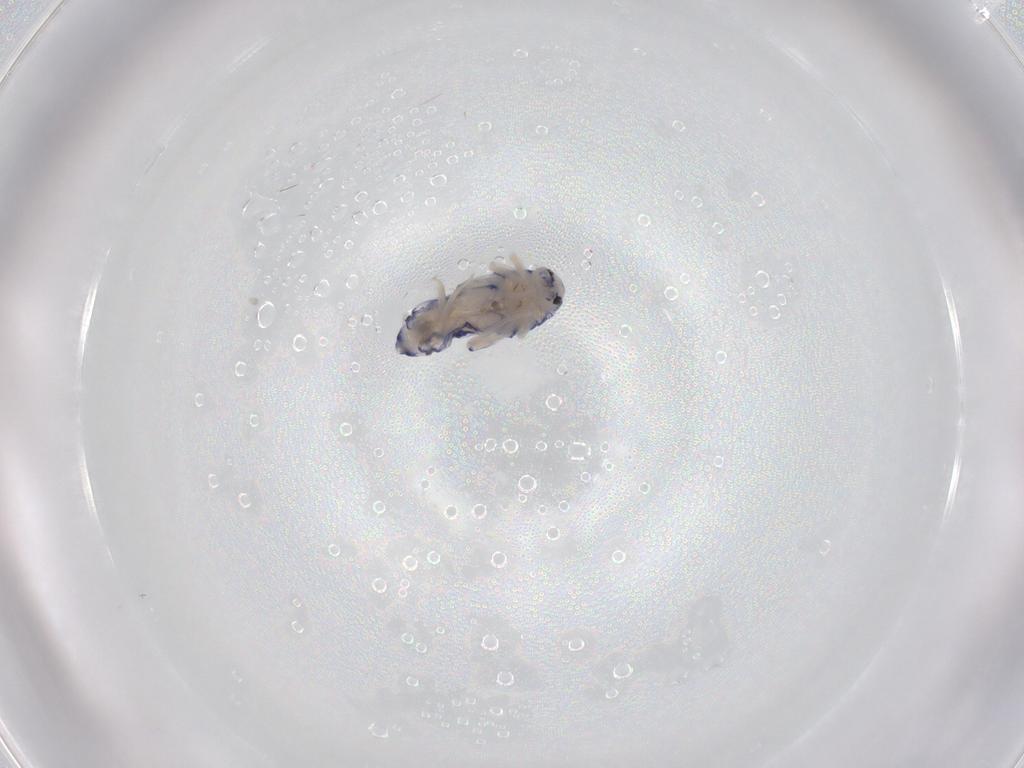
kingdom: Animalia
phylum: Arthropoda
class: Collembola
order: Entomobryomorpha
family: Entomobryidae
